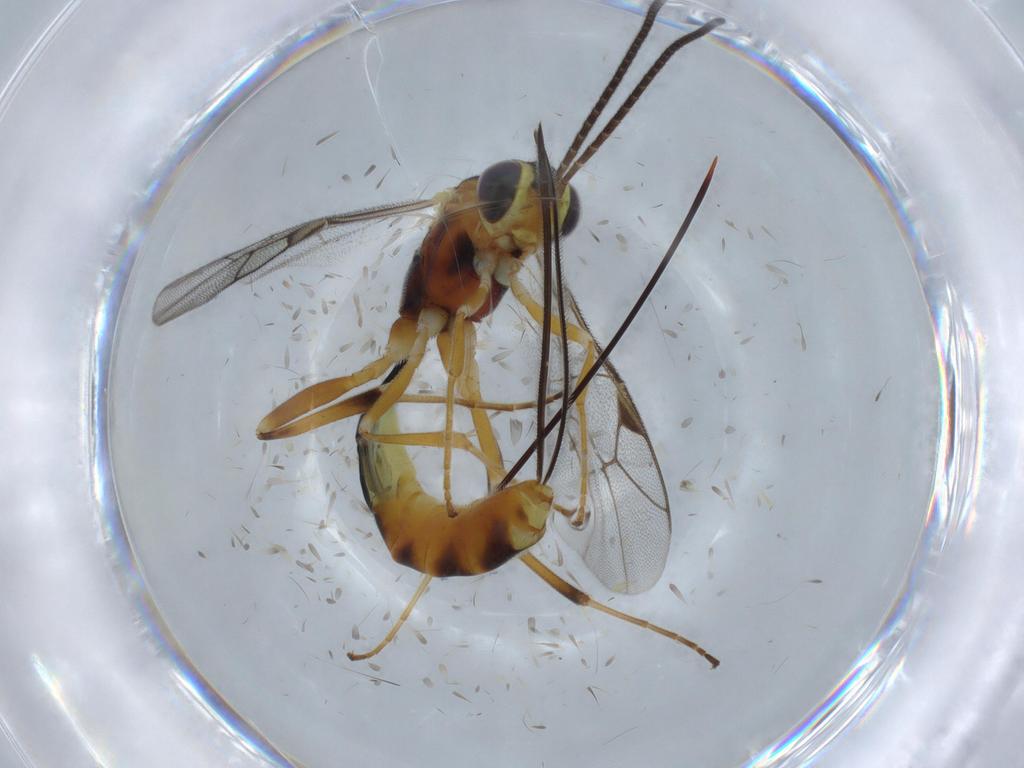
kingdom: Animalia
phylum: Arthropoda
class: Insecta
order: Hymenoptera
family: Ichneumonidae
